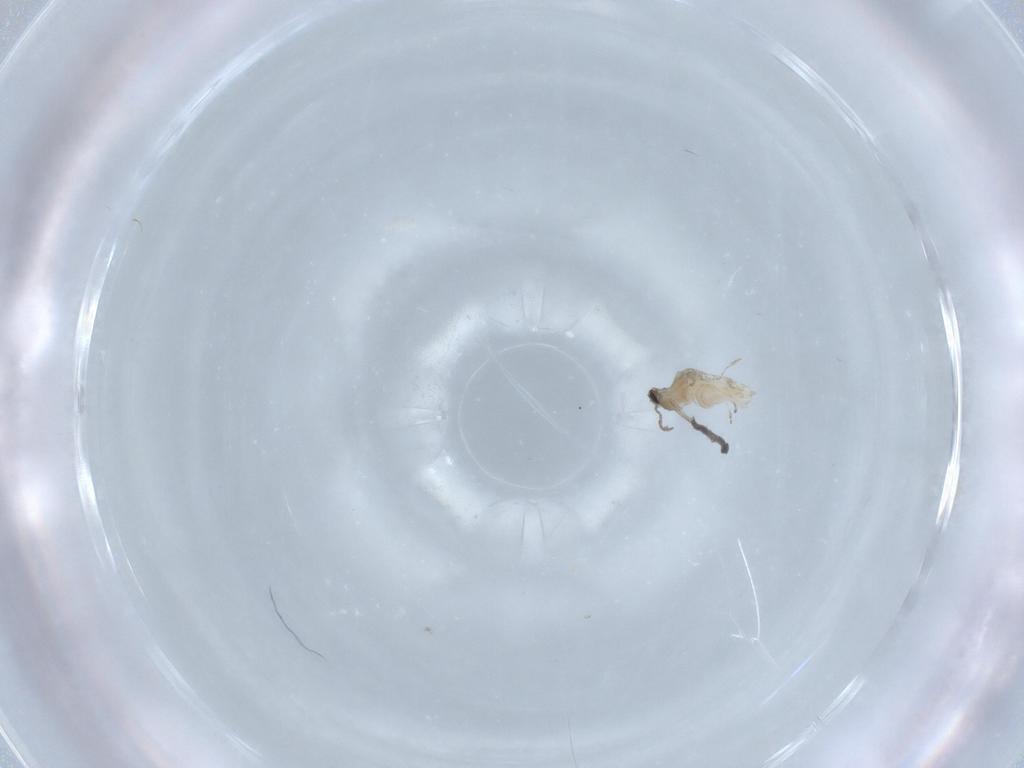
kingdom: Animalia
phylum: Arthropoda
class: Insecta
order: Diptera
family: Cecidomyiidae
